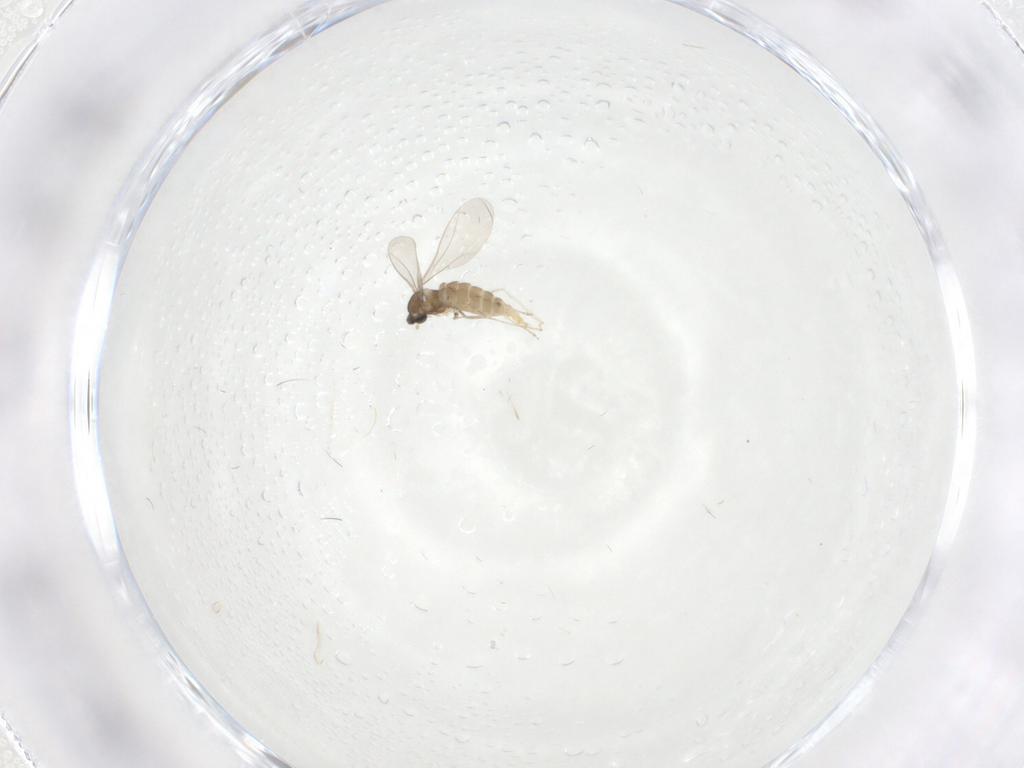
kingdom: Animalia
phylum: Arthropoda
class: Insecta
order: Diptera
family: Cecidomyiidae
